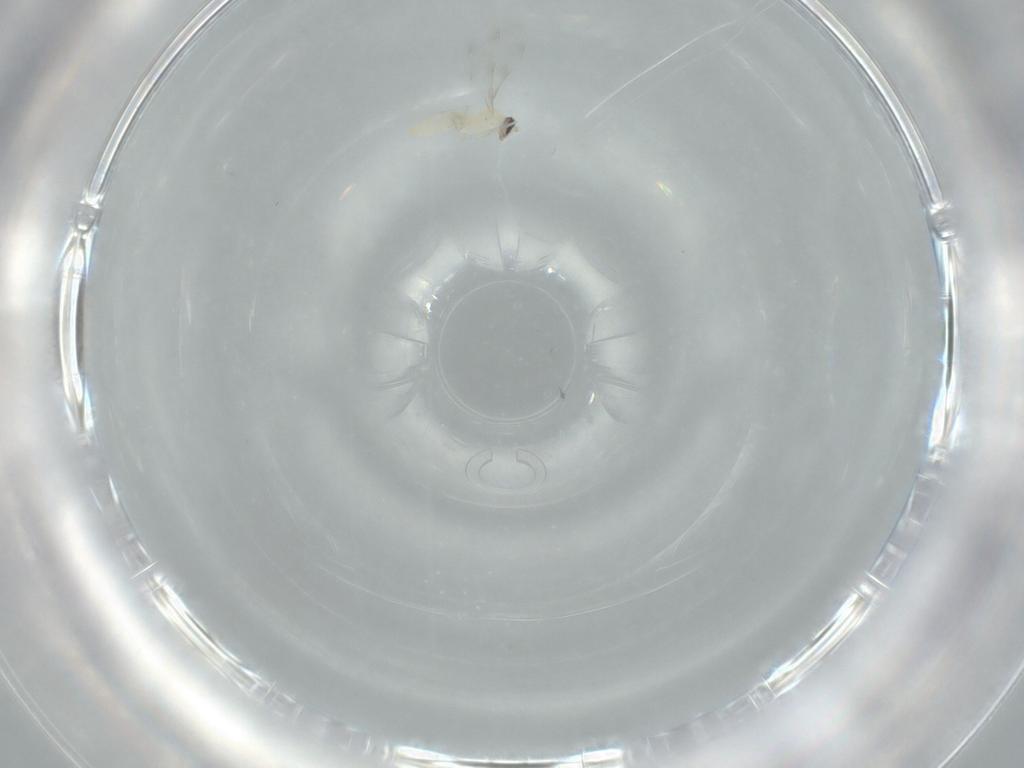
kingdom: Animalia
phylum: Arthropoda
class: Insecta
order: Diptera
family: Cecidomyiidae
